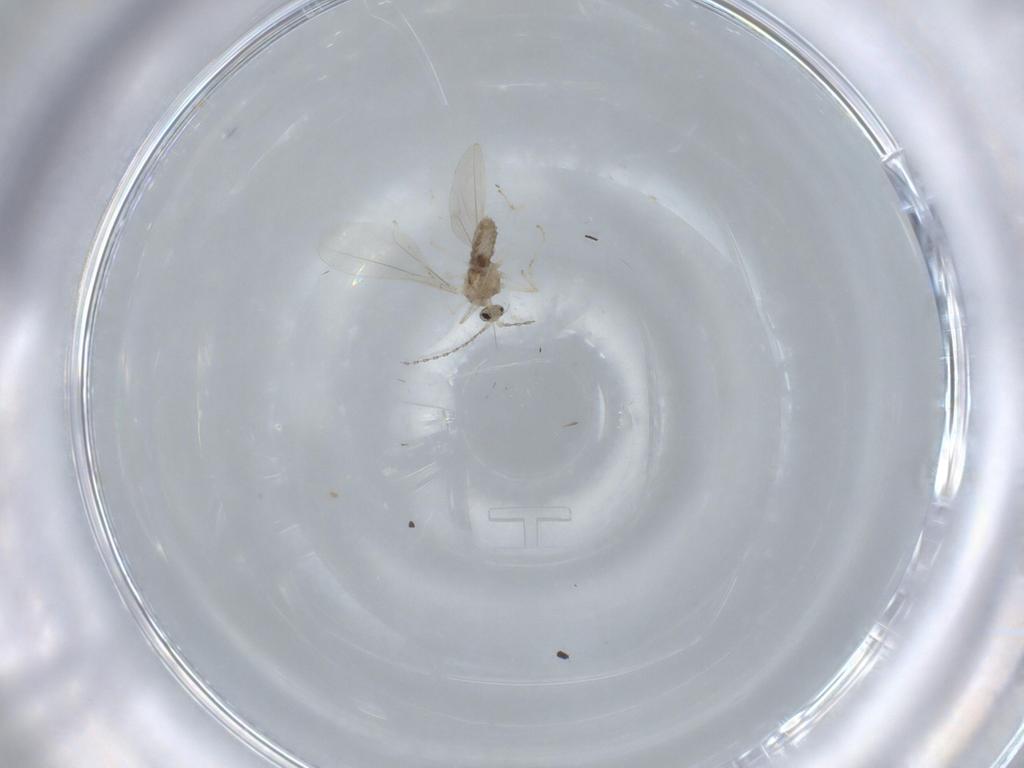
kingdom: Animalia
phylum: Arthropoda
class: Insecta
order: Diptera
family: Cecidomyiidae
